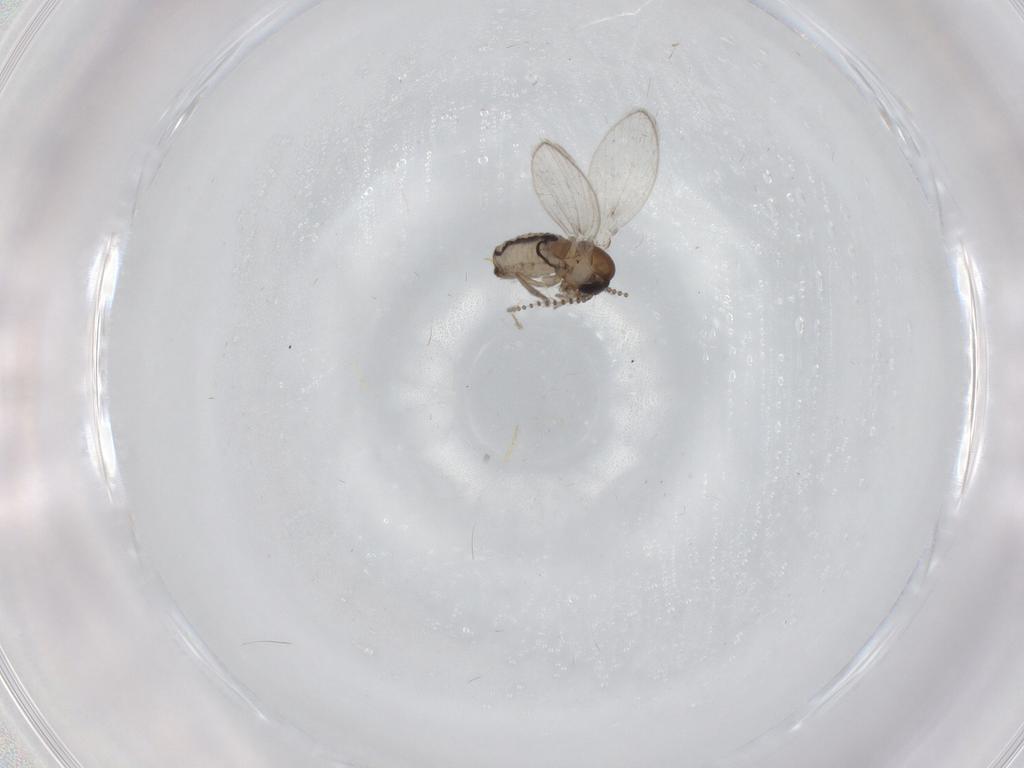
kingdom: Animalia
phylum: Arthropoda
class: Insecta
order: Diptera
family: Psychodidae
